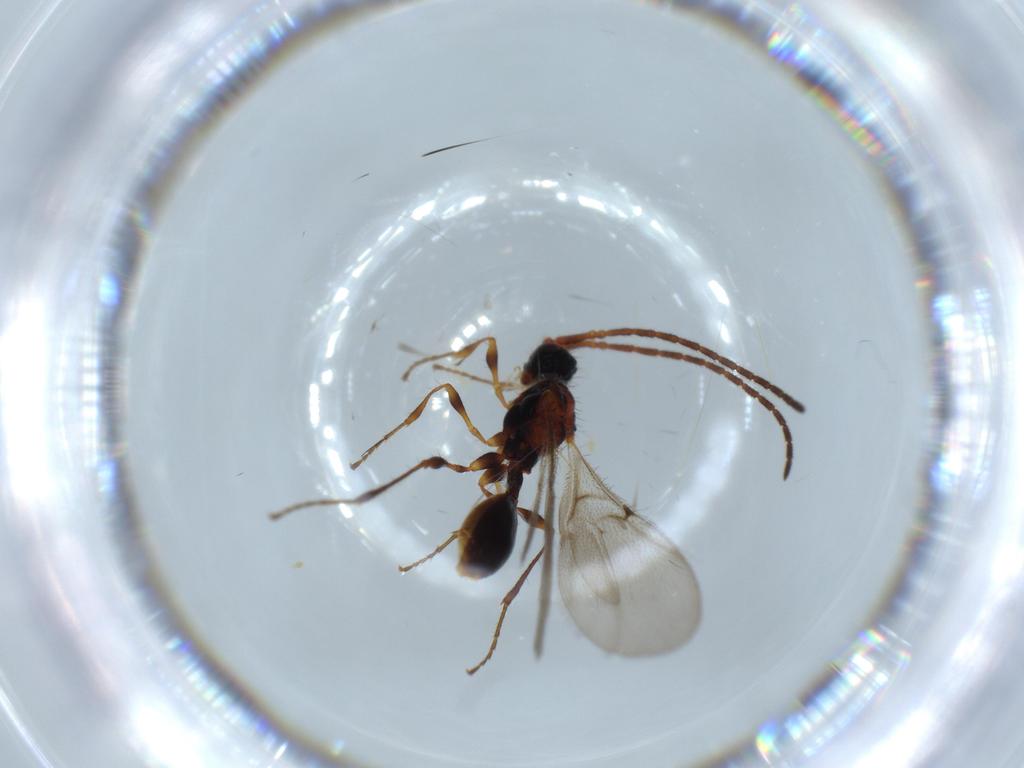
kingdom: Animalia
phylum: Arthropoda
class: Insecta
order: Hymenoptera
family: Diapriidae
